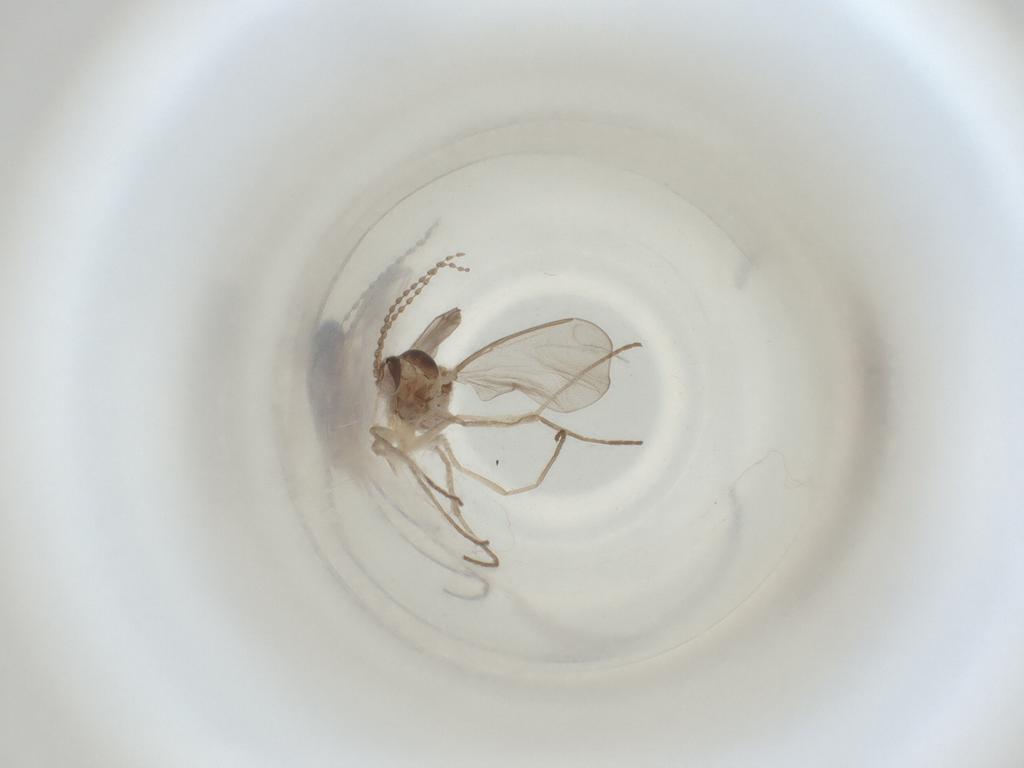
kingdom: Animalia
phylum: Arthropoda
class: Insecta
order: Diptera
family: Cecidomyiidae
